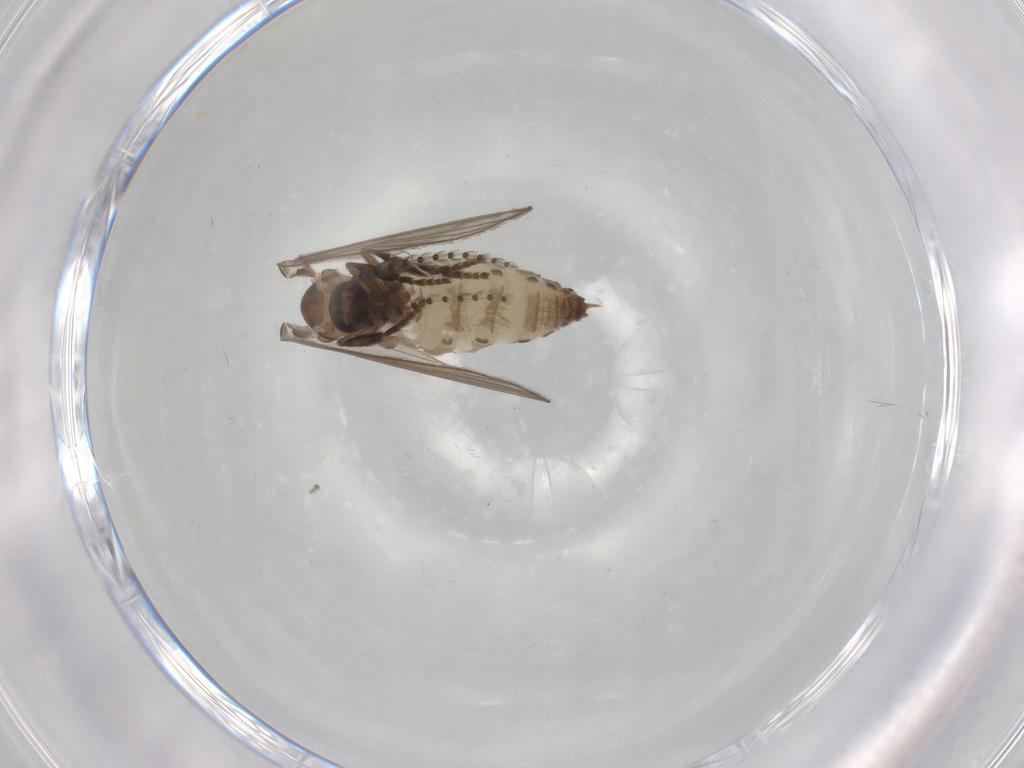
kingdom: Animalia
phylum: Arthropoda
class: Insecta
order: Diptera
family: Psychodidae
